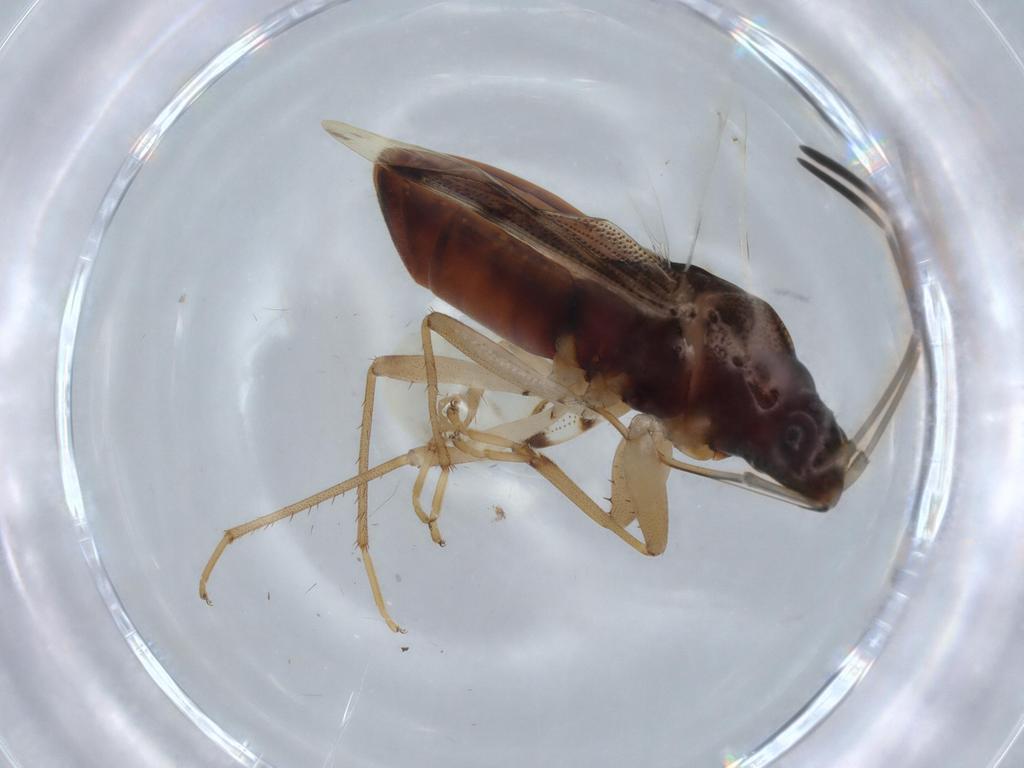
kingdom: Animalia
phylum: Arthropoda
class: Insecta
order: Hemiptera
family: Rhyparochromidae
